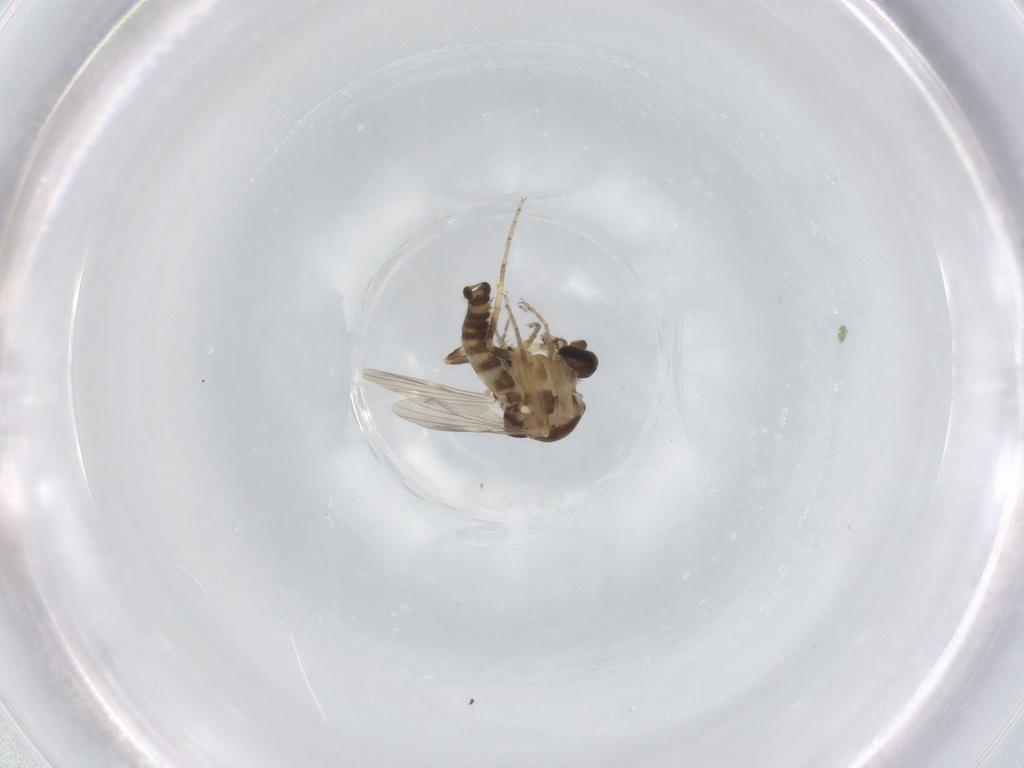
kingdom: Animalia
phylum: Arthropoda
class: Insecta
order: Diptera
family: Ceratopogonidae
